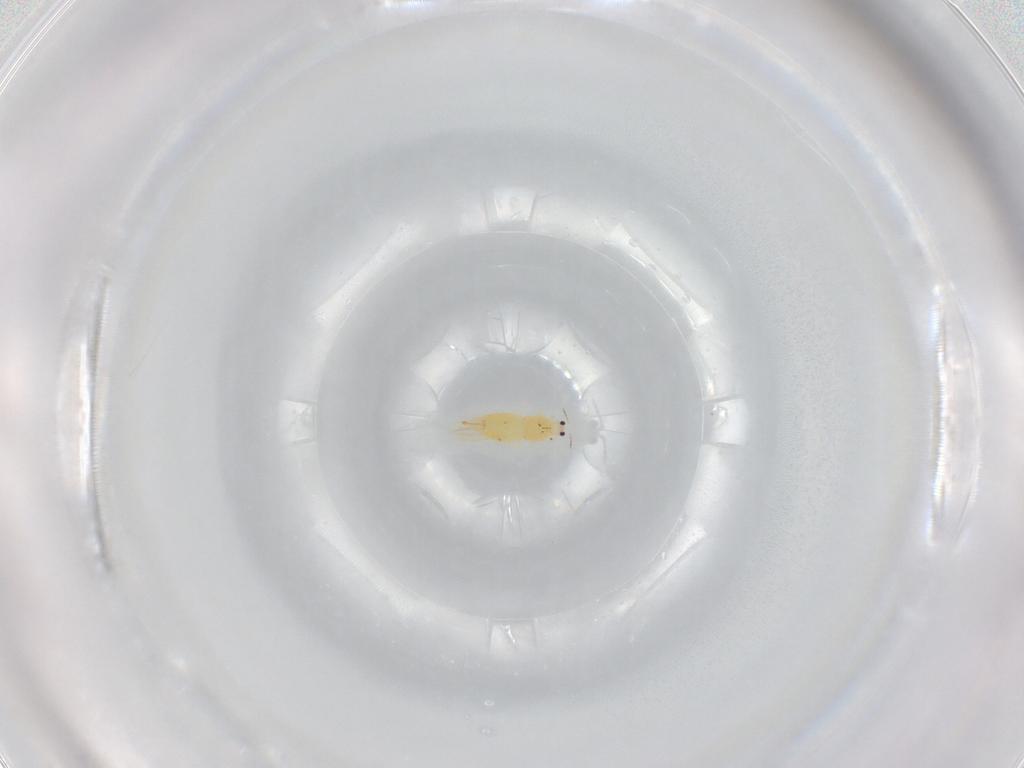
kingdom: Animalia
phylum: Arthropoda
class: Insecta
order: Thysanoptera
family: Thripidae
